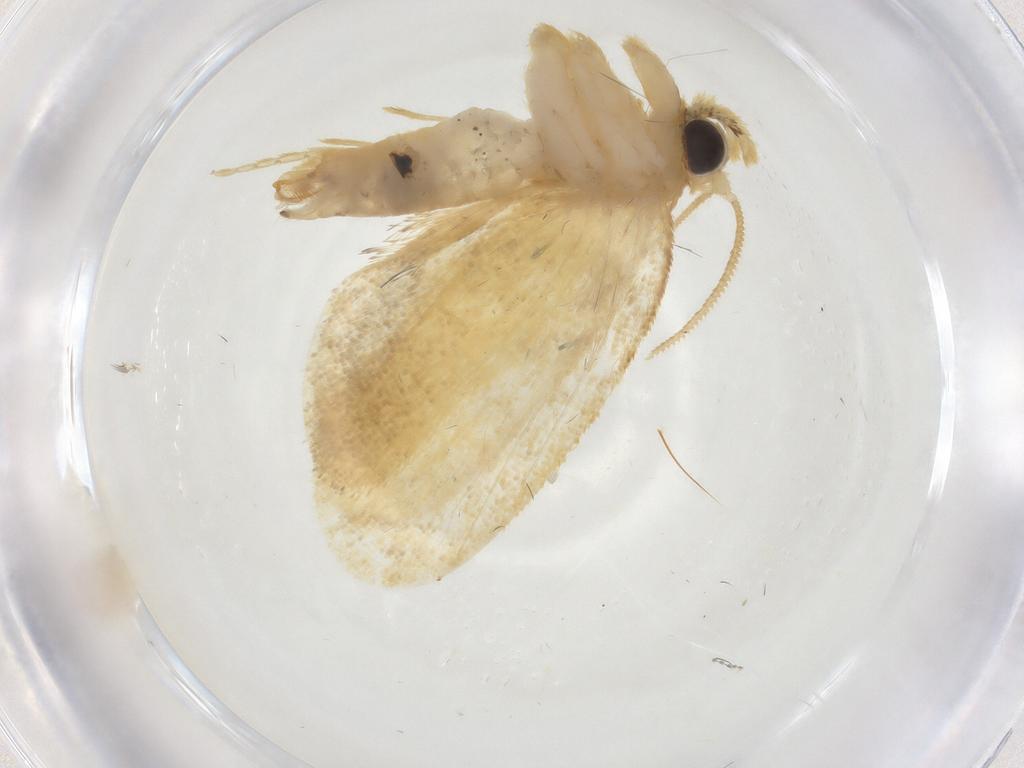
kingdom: Animalia
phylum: Arthropoda
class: Insecta
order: Lepidoptera
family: Psychidae
